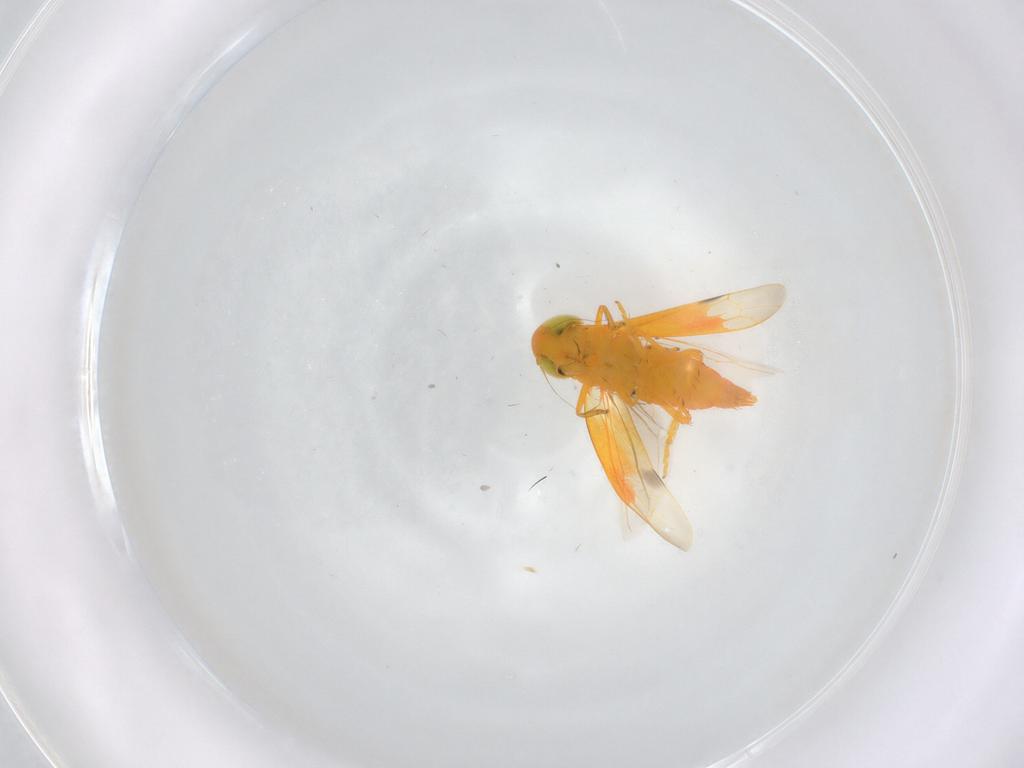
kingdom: Animalia
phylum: Arthropoda
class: Insecta
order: Hemiptera
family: Cicadellidae
